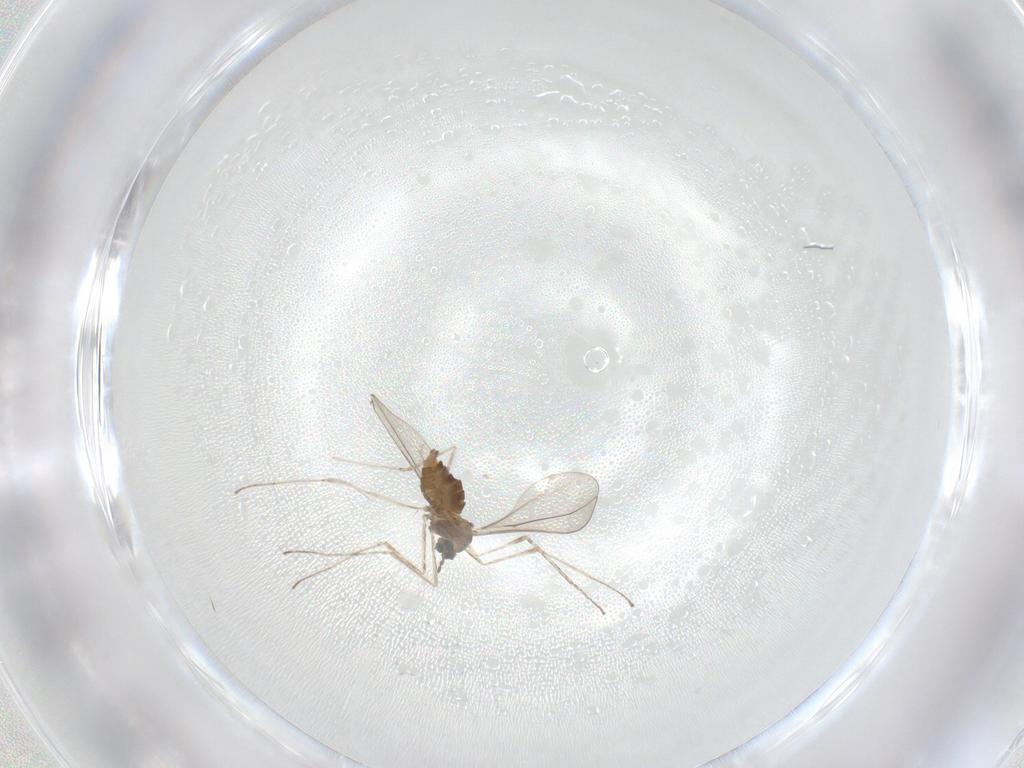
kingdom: Animalia
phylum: Arthropoda
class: Insecta
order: Diptera
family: Cecidomyiidae
